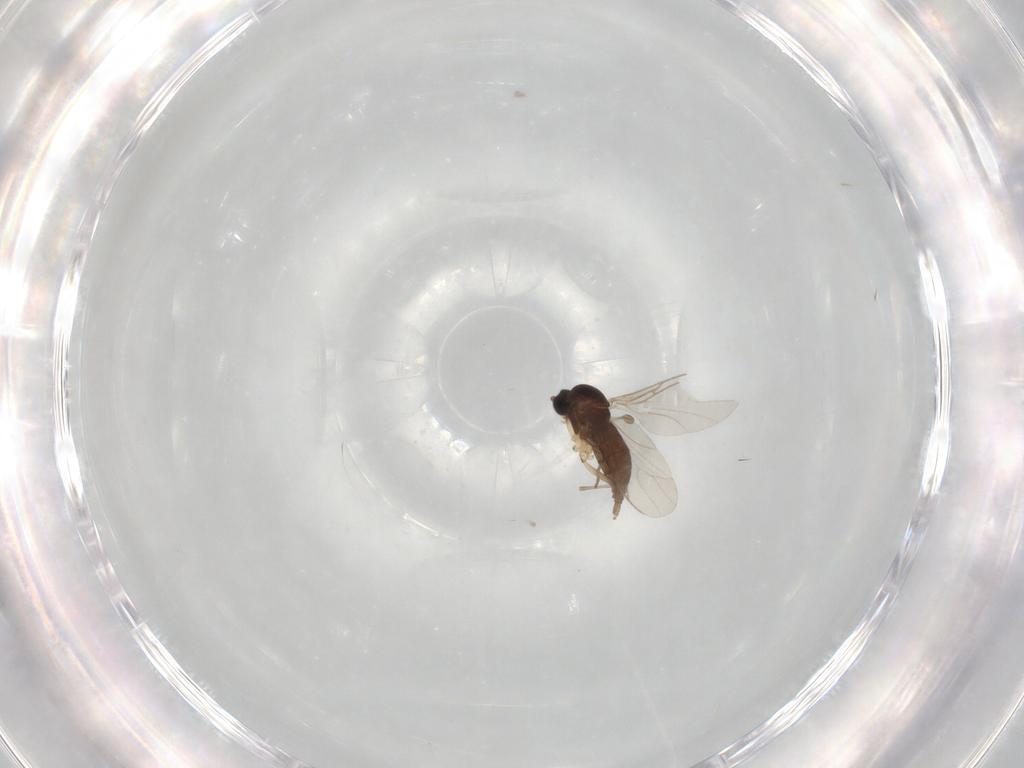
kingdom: Animalia
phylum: Arthropoda
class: Insecta
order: Diptera
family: Sciaridae
